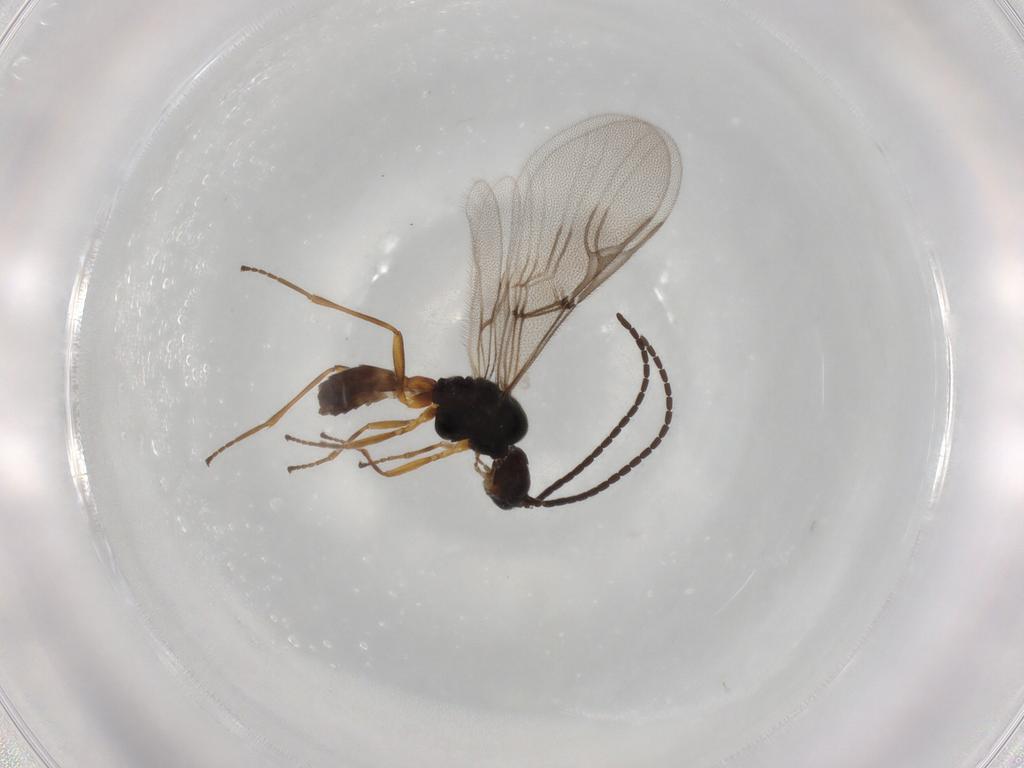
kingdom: Animalia
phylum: Arthropoda
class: Insecta
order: Hymenoptera
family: Braconidae
